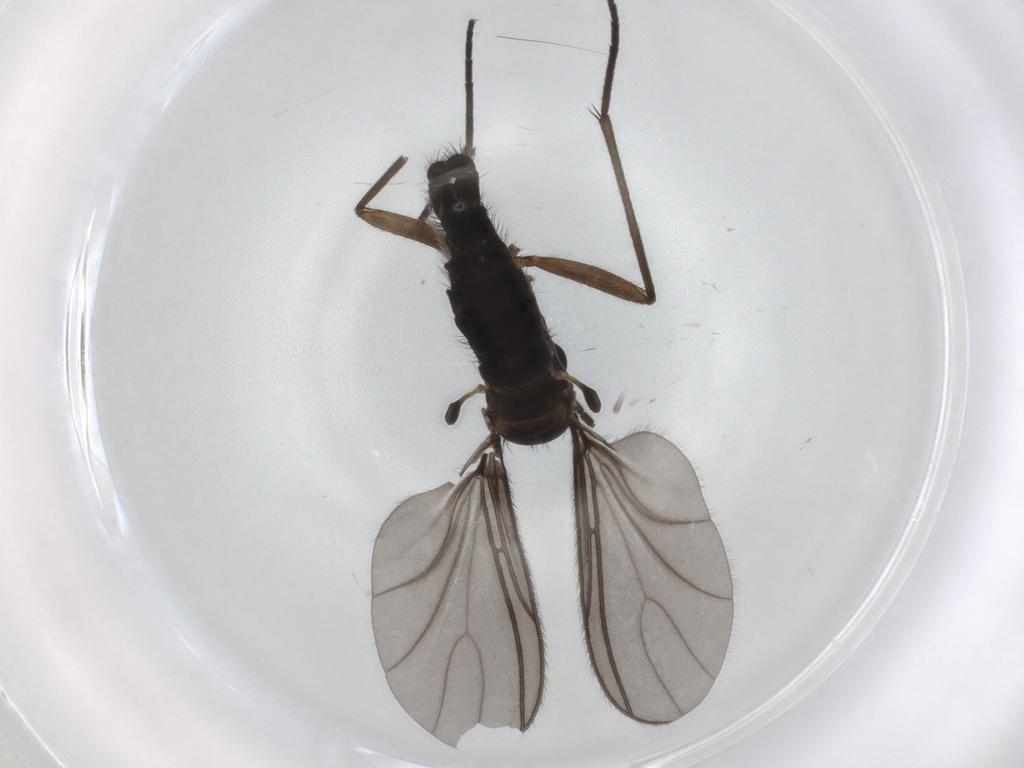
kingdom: Animalia
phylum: Arthropoda
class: Insecta
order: Diptera
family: Sciaridae
